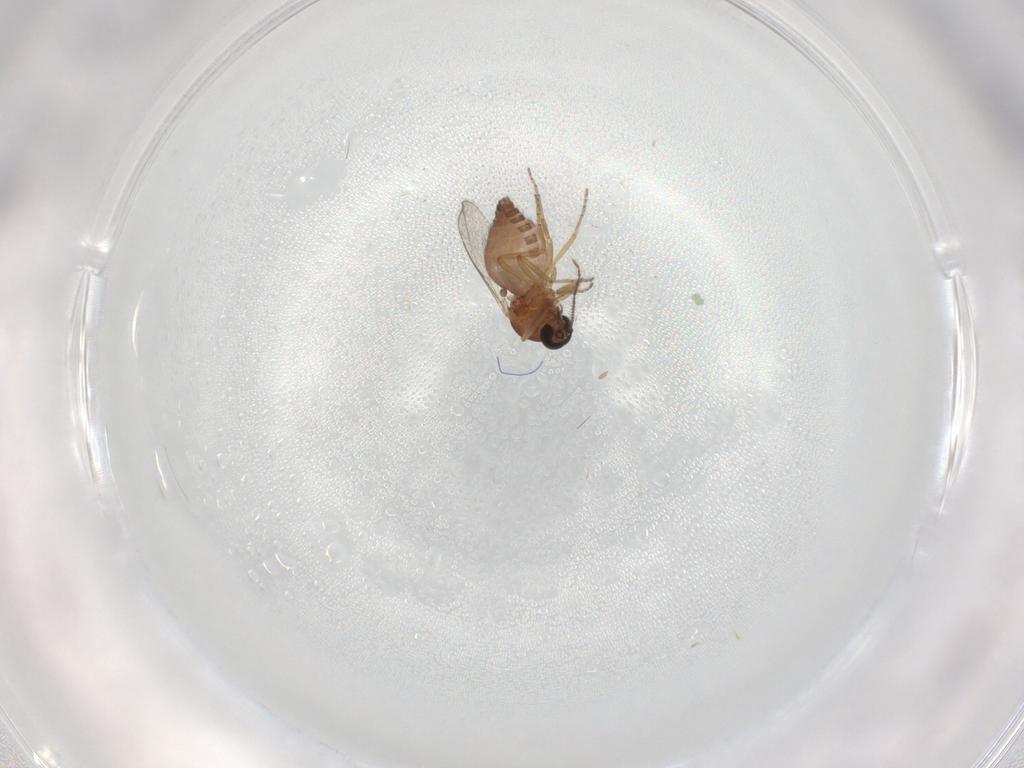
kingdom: Animalia
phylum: Arthropoda
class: Insecta
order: Diptera
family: Ceratopogonidae
